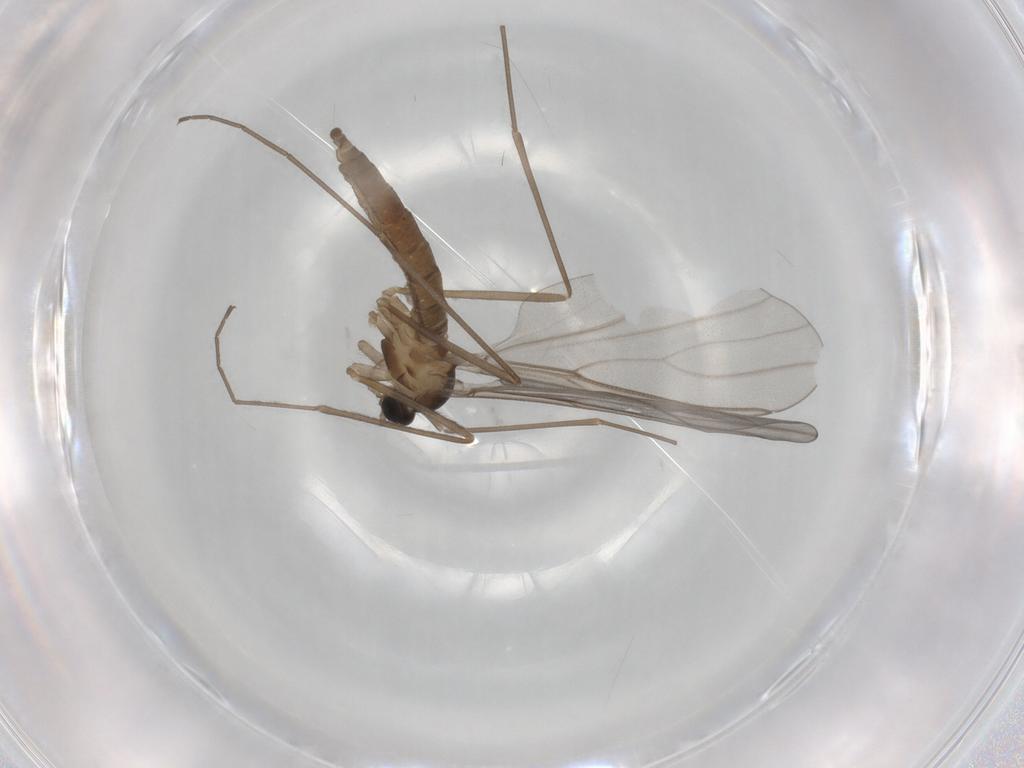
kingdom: Animalia
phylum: Arthropoda
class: Insecta
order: Diptera
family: Cecidomyiidae
